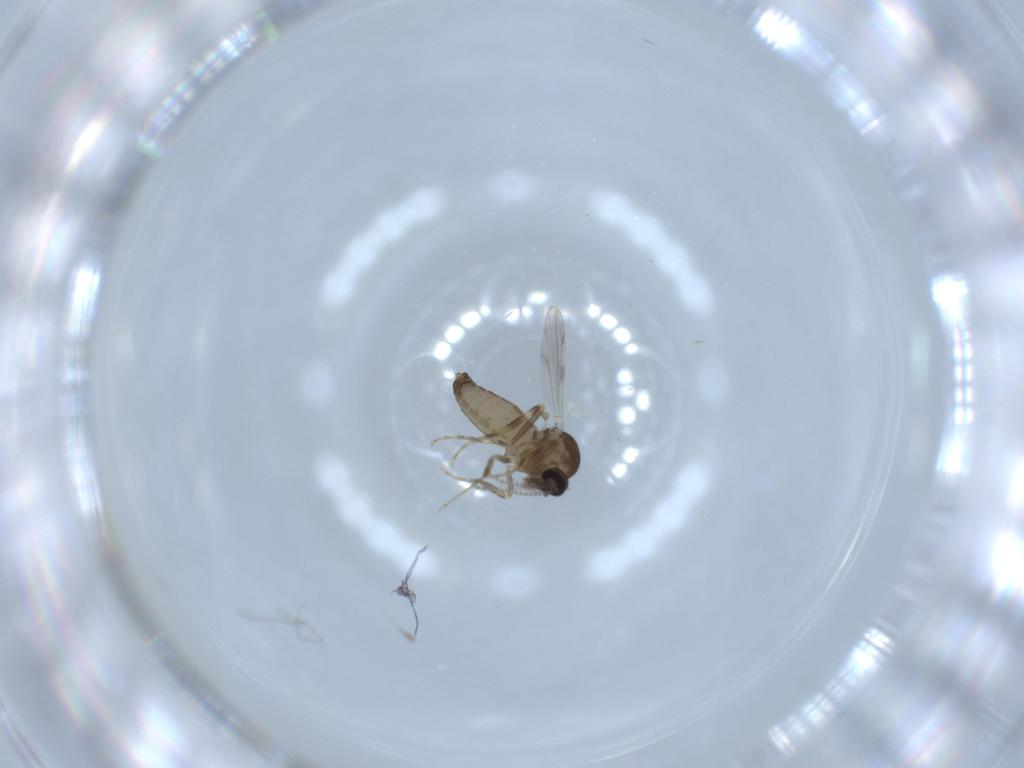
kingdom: Animalia
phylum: Arthropoda
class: Insecta
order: Diptera
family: Ceratopogonidae
